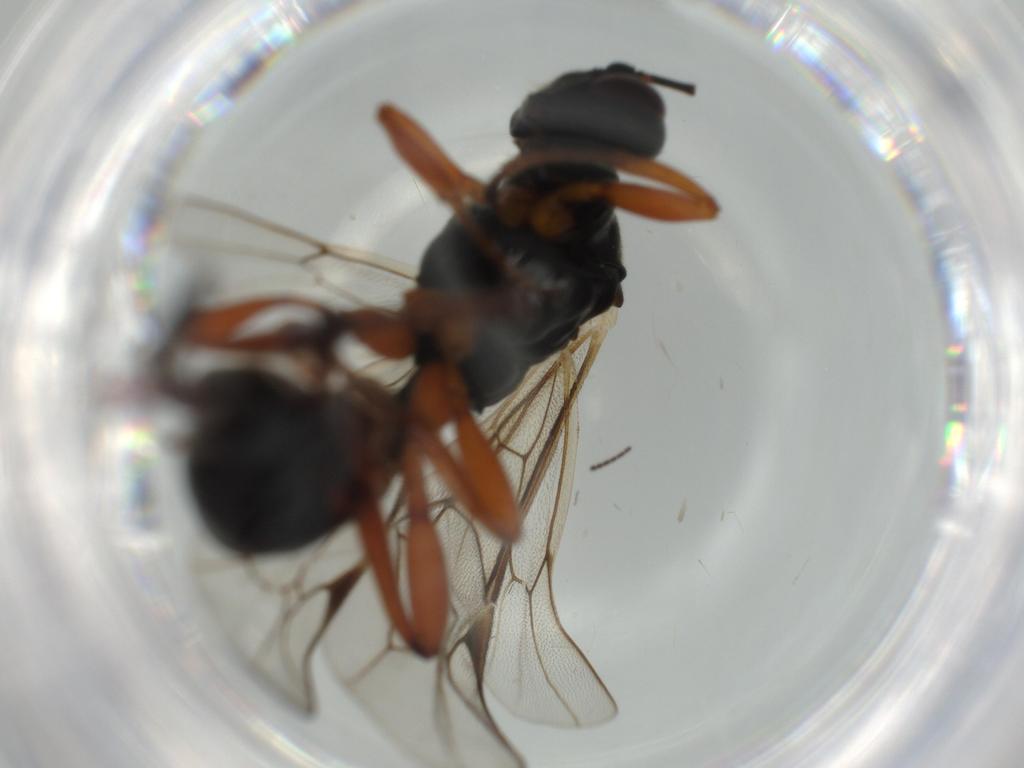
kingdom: Animalia
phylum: Arthropoda
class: Insecta
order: Hymenoptera
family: Ichneumonidae
